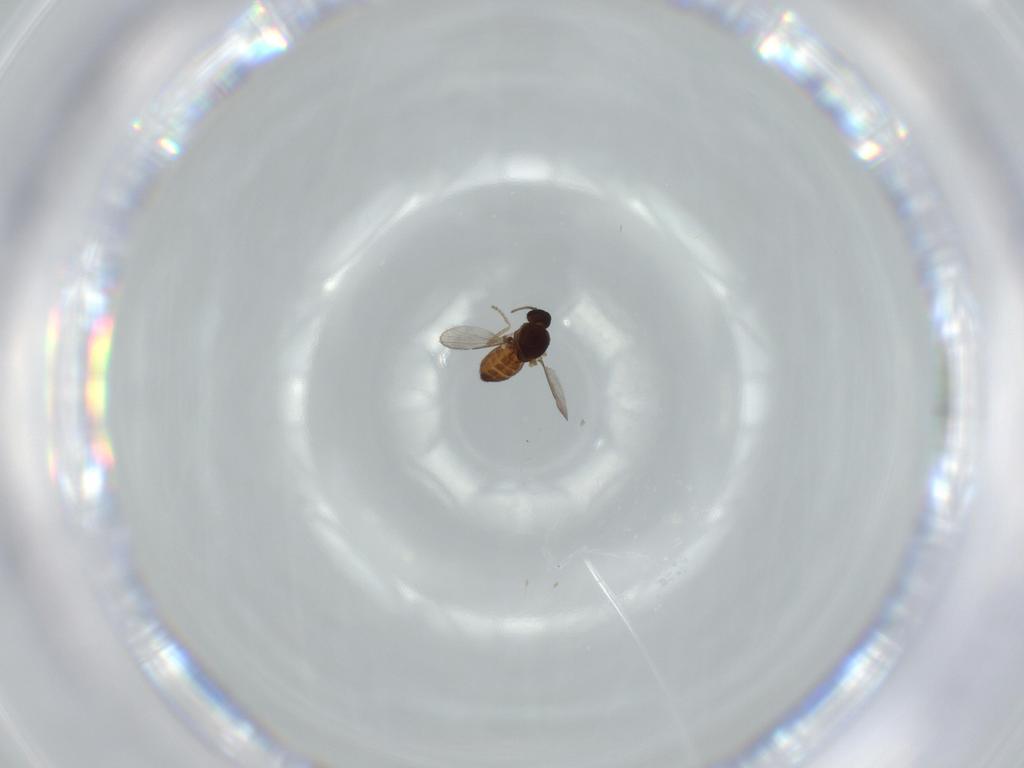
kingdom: Animalia
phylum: Arthropoda
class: Insecta
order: Diptera
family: Ceratopogonidae
